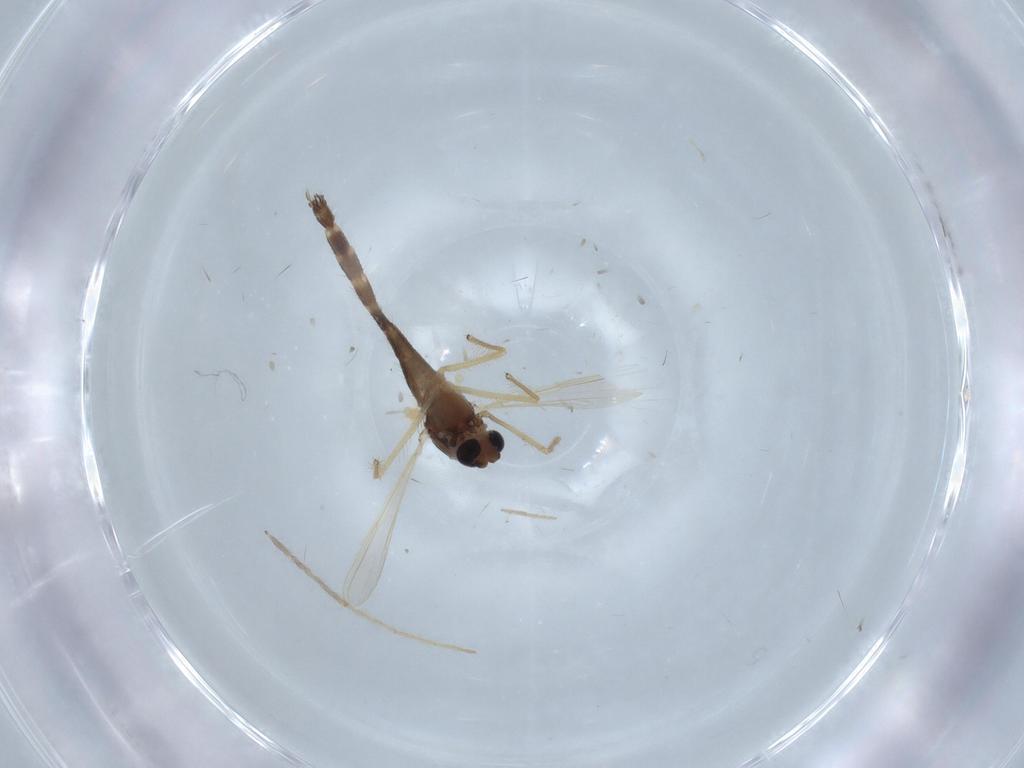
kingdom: Animalia
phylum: Arthropoda
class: Insecta
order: Diptera
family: Chironomidae
